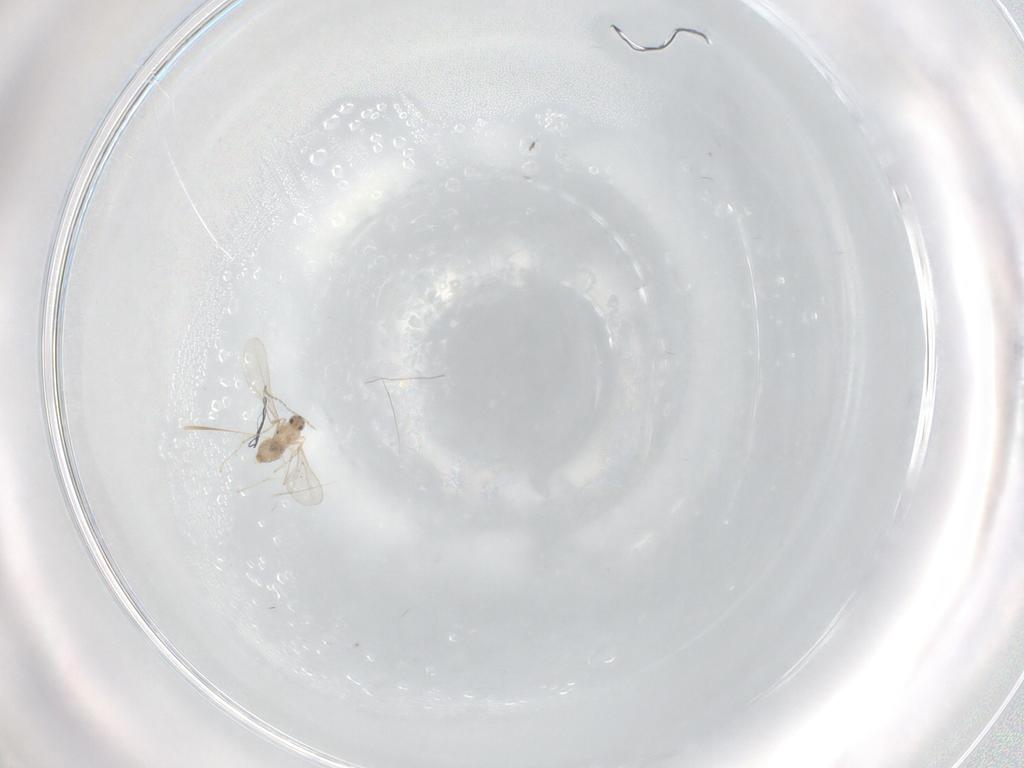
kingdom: Animalia
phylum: Arthropoda
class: Insecta
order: Diptera
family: Cecidomyiidae
